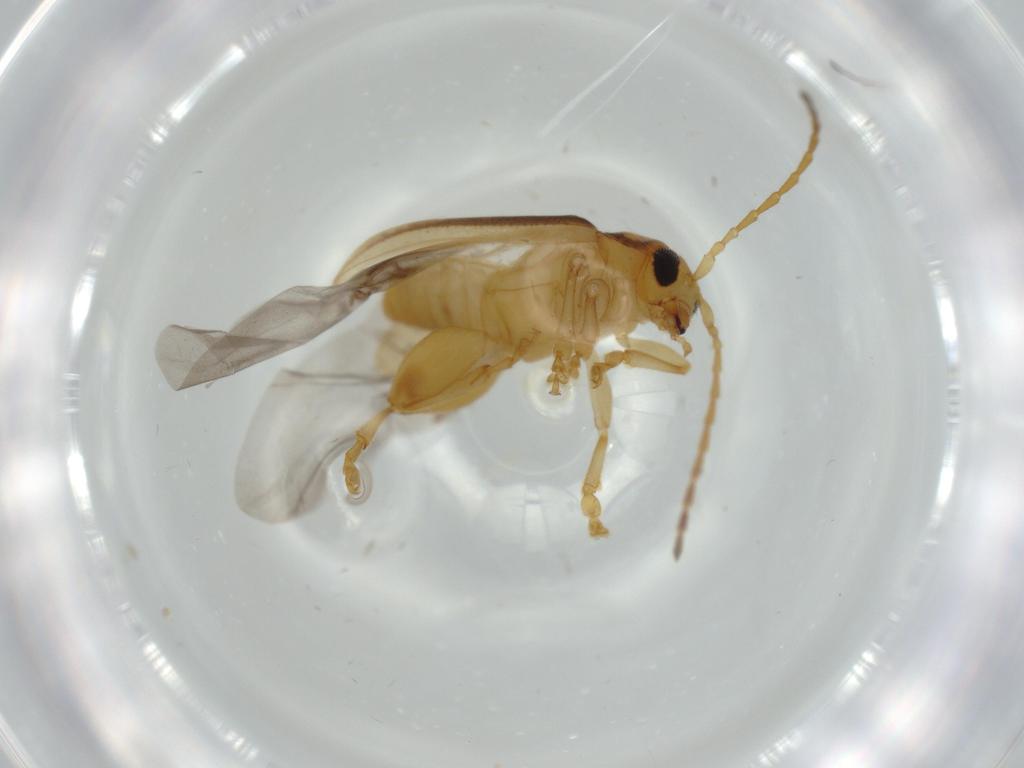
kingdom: Animalia
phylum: Arthropoda
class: Insecta
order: Coleoptera
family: Chrysomelidae
